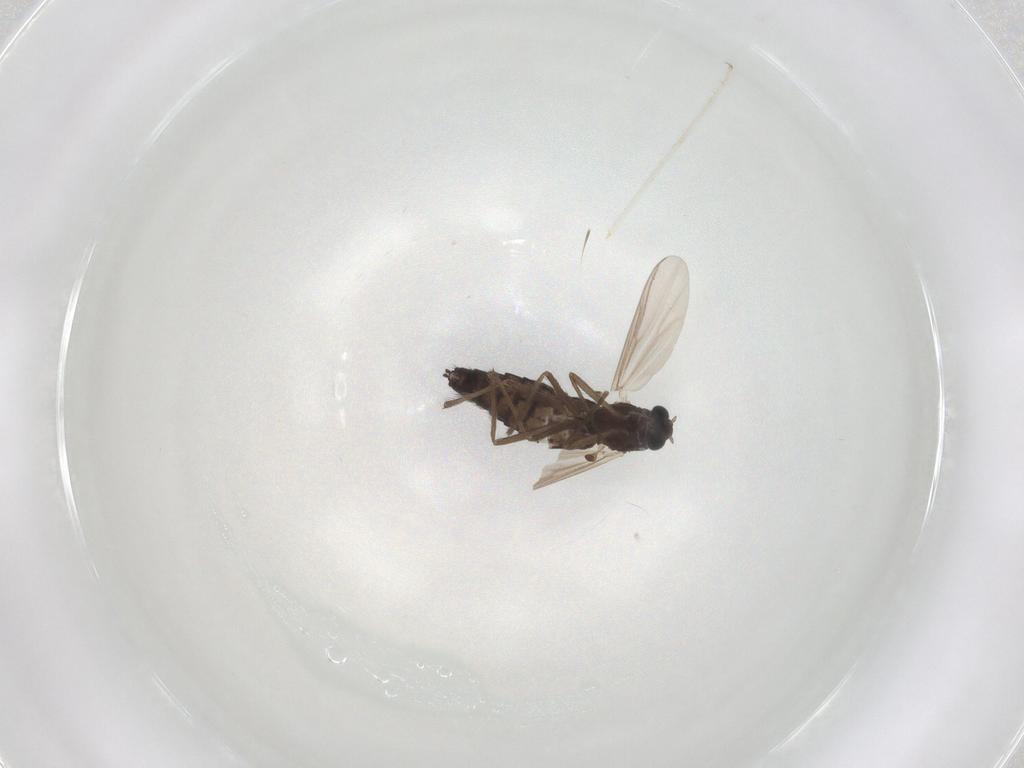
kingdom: Animalia
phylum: Arthropoda
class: Insecta
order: Diptera
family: Chironomidae
